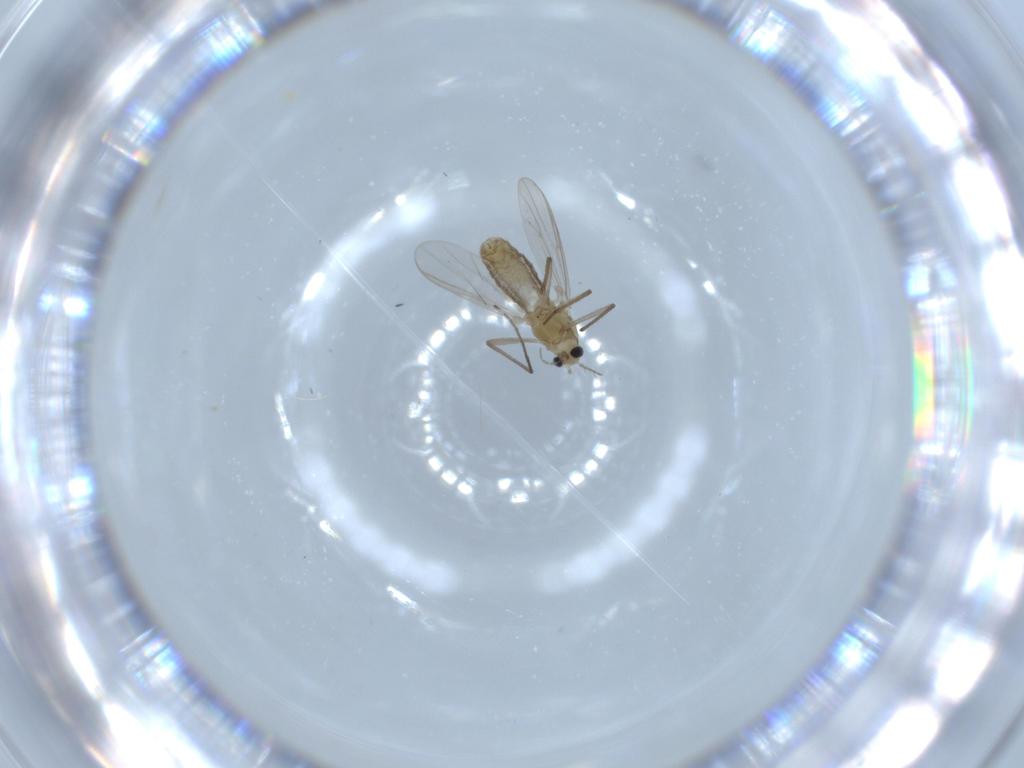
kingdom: Animalia
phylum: Arthropoda
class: Insecta
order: Diptera
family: Chironomidae
